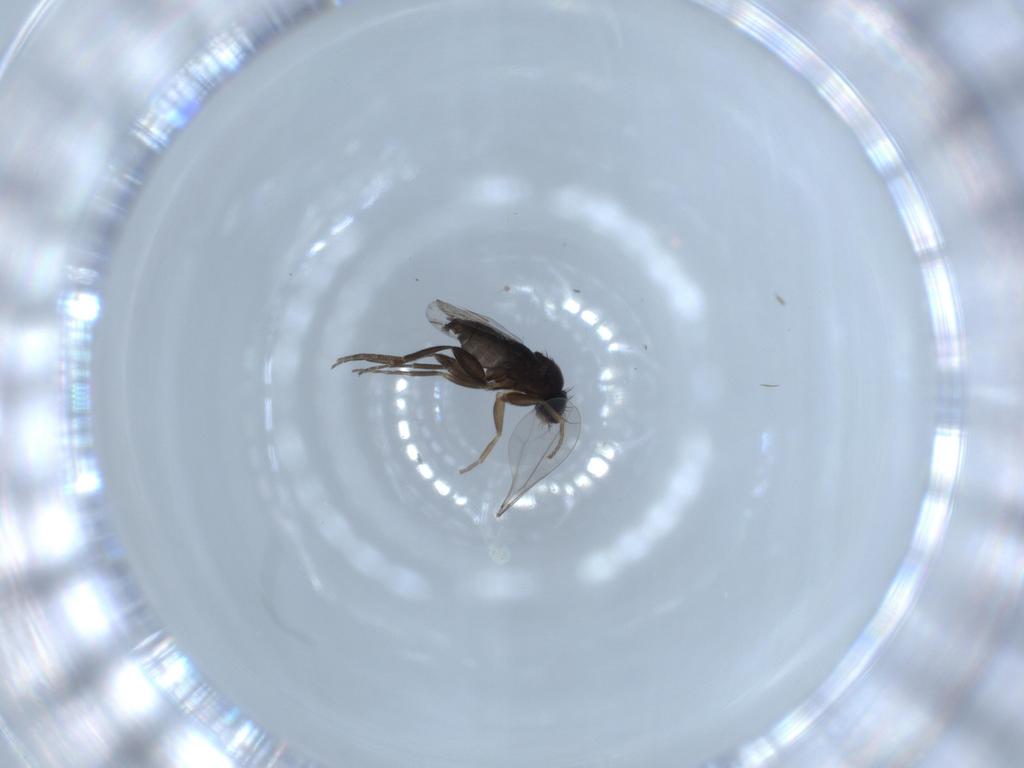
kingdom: Animalia
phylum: Arthropoda
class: Insecta
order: Diptera
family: Phoridae
